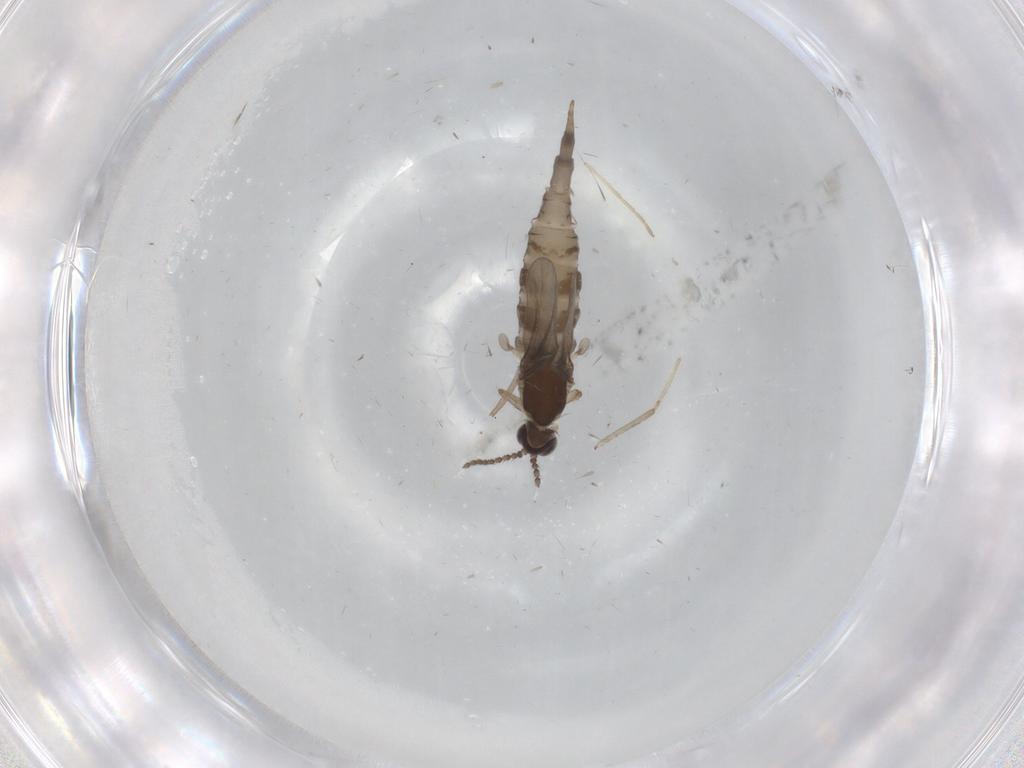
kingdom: Animalia
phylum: Arthropoda
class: Insecta
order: Diptera
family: Cecidomyiidae
